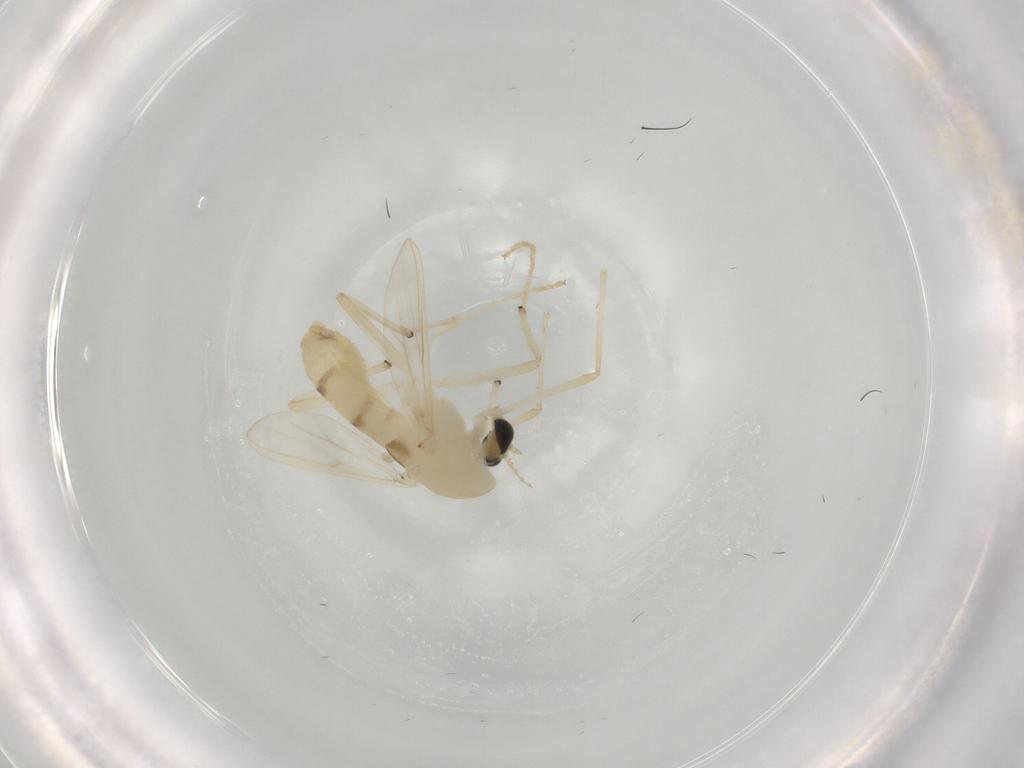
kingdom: Animalia
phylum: Arthropoda
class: Insecta
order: Diptera
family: Chironomidae
